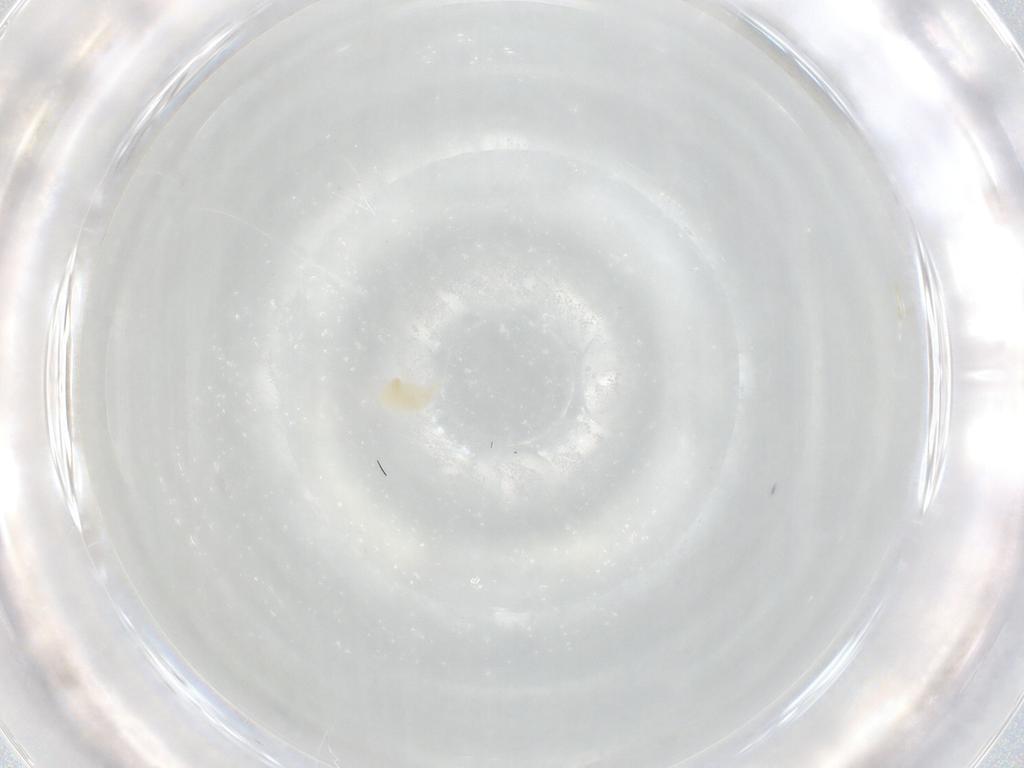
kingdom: Animalia
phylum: Arthropoda
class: Arachnida
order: Trombidiformes
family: Eupodidae
